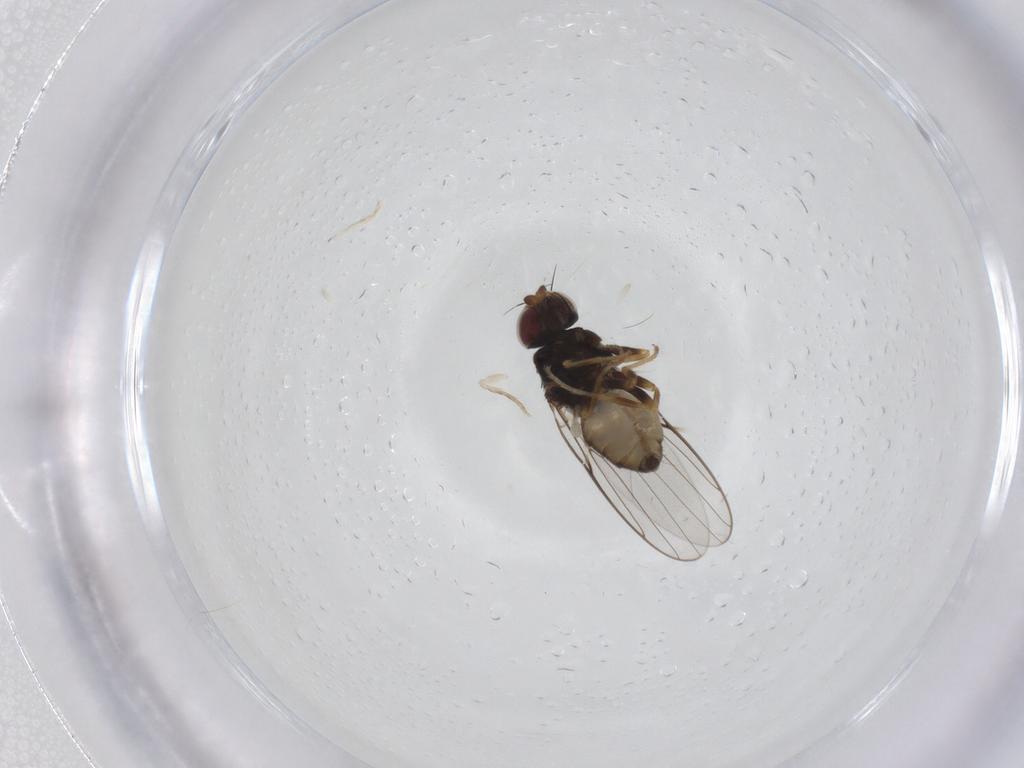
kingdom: Animalia
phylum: Arthropoda
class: Insecta
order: Diptera
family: Chloropidae
